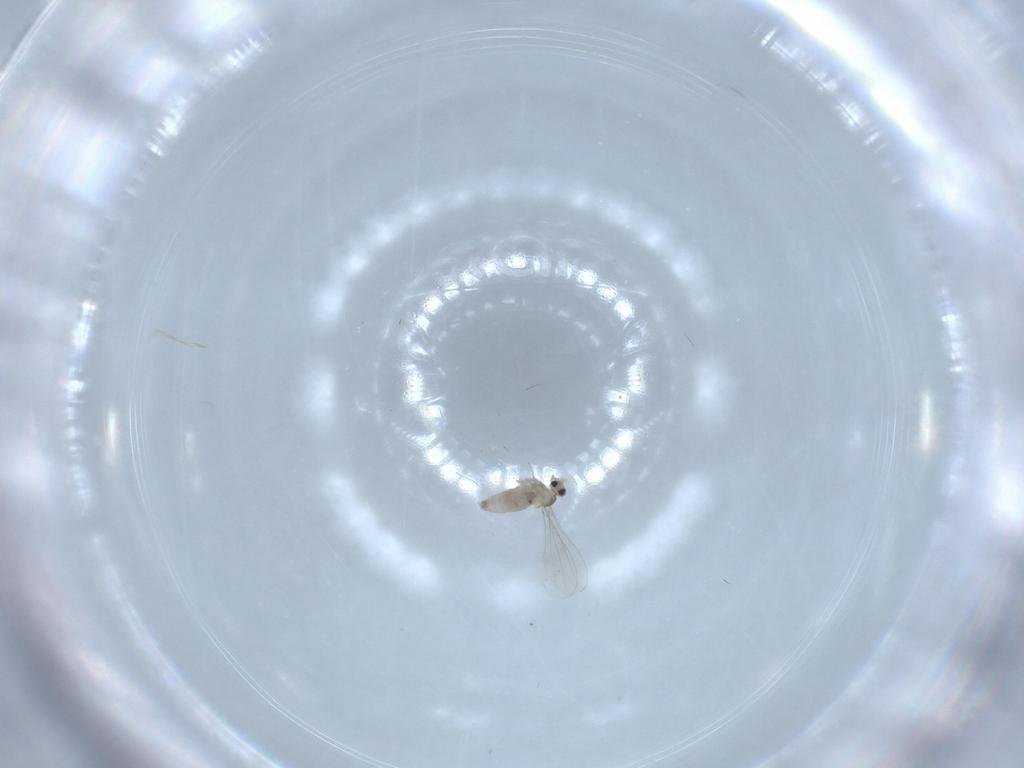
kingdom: Animalia
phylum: Arthropoda
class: Insecta
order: Diptera
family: Cecidomyiidae
